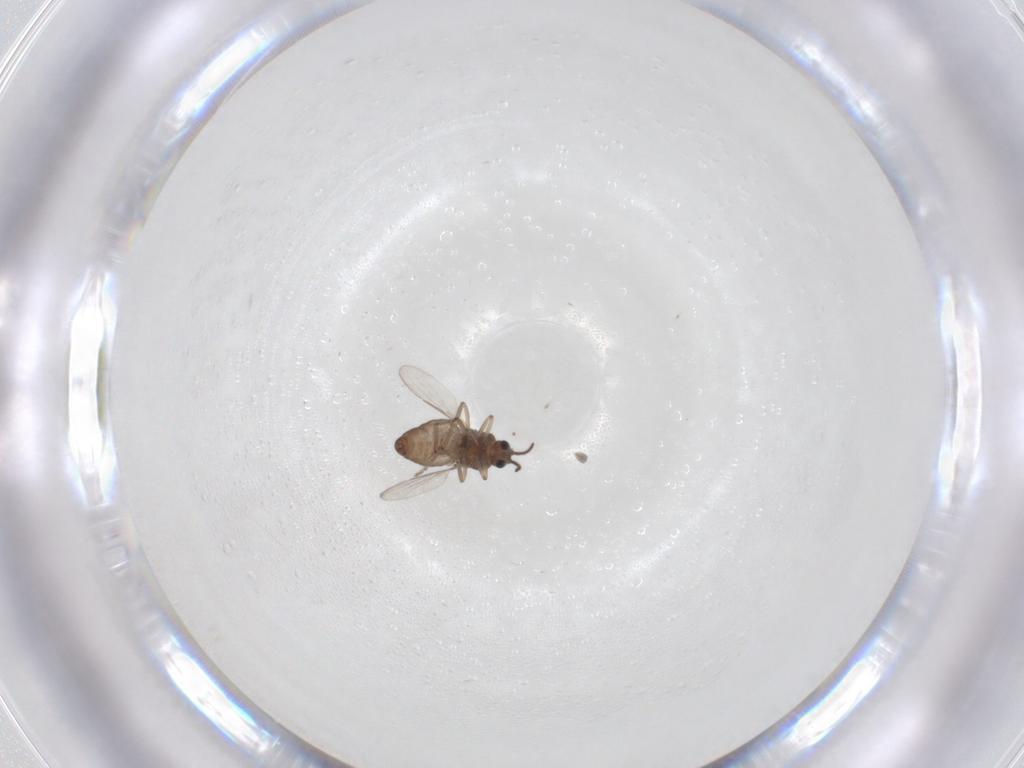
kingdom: Animalia
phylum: Arthropoda
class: Insecta
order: Diptera
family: Ceratopogonidae
